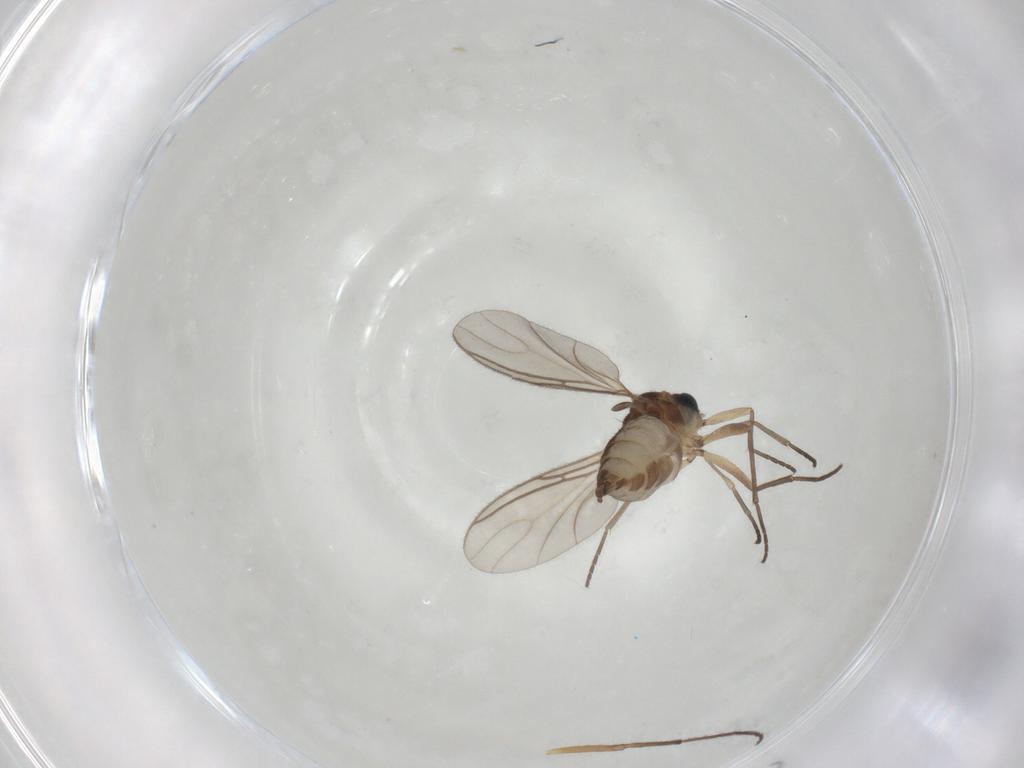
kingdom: Animalia
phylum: Arthropoda
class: Insecta
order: Diptera
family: Sciaridae
